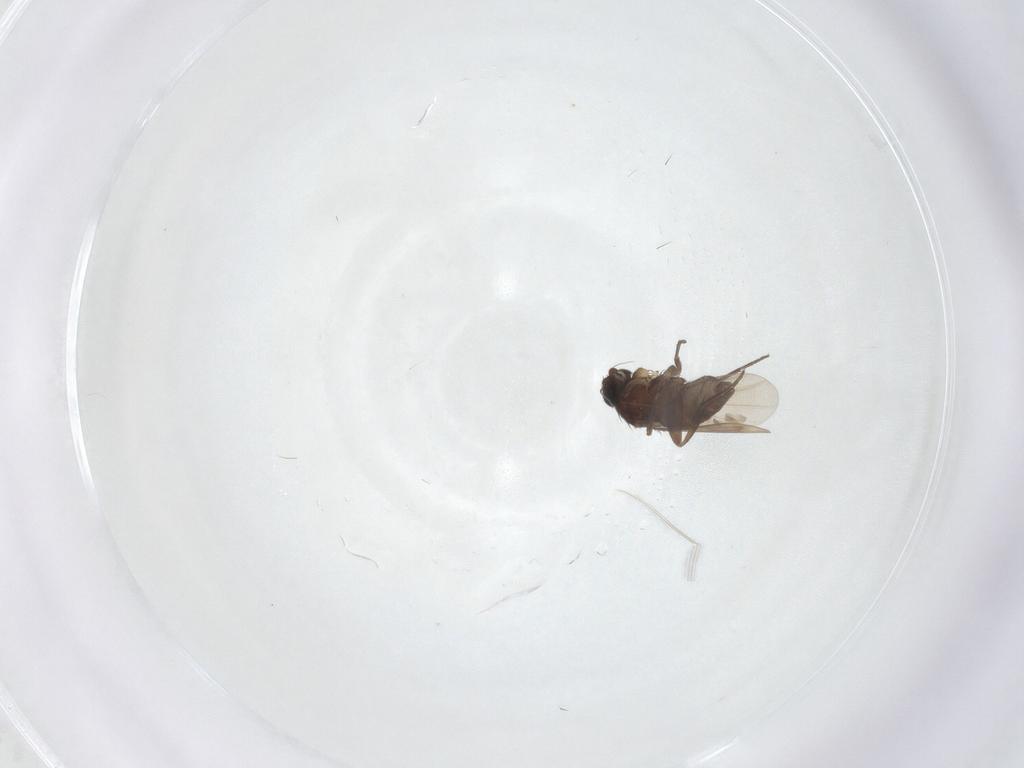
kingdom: Animalia
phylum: Arthropoda
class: Insecta
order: Diptera
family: Phoridae
